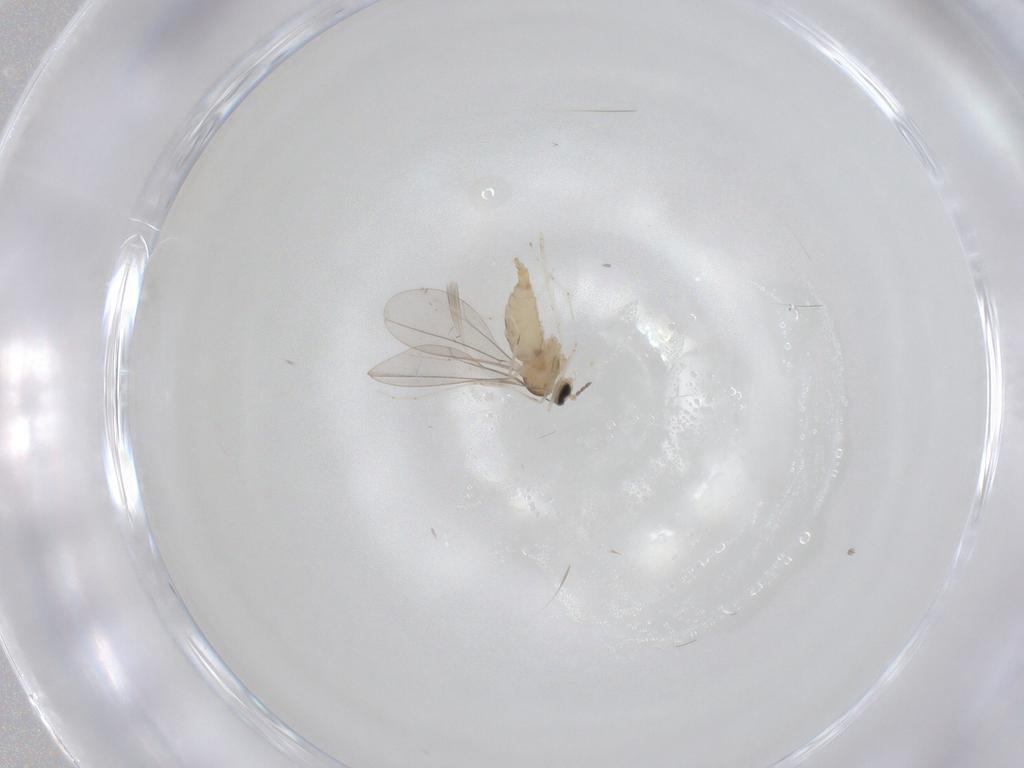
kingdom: Animalia
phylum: Arthropoda
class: Insecta
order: Diptera
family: Cecidomyiidae
